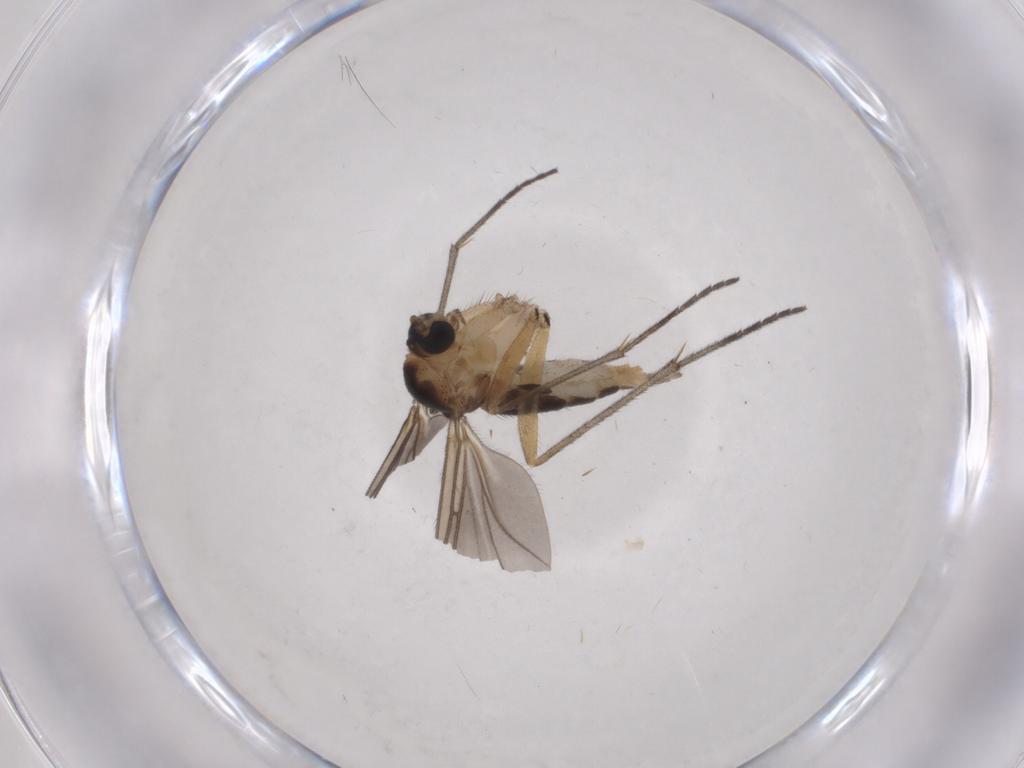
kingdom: Animalia
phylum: Arthropoda
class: Insecta
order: Diptera
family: Sciaridae
